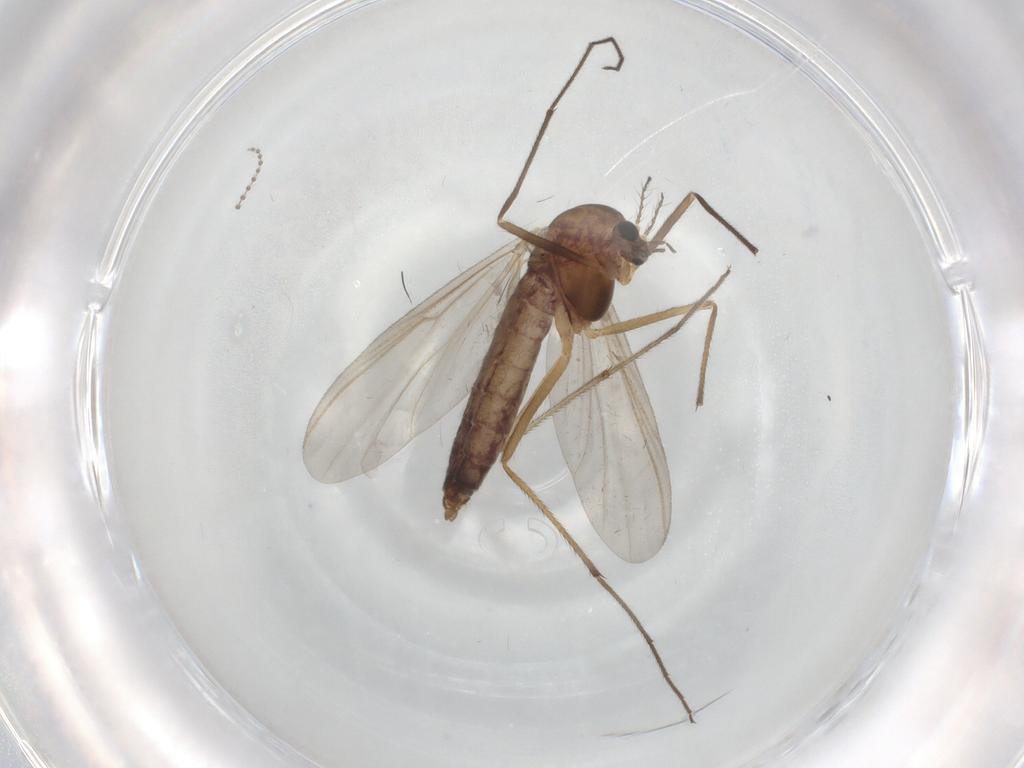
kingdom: Animalia
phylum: Arthropoda
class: Insecta
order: Diptera
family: Chironomidae
